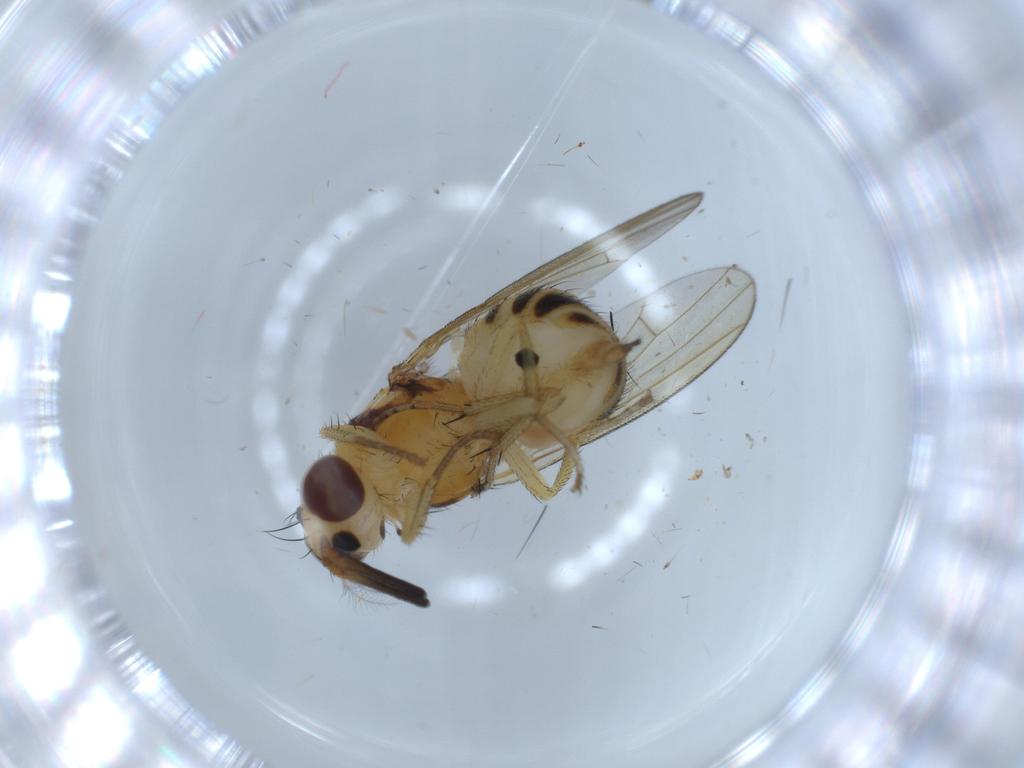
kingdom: Animalia
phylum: Arthropoda
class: Insecta
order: Diptera
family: Lauxaniidae
